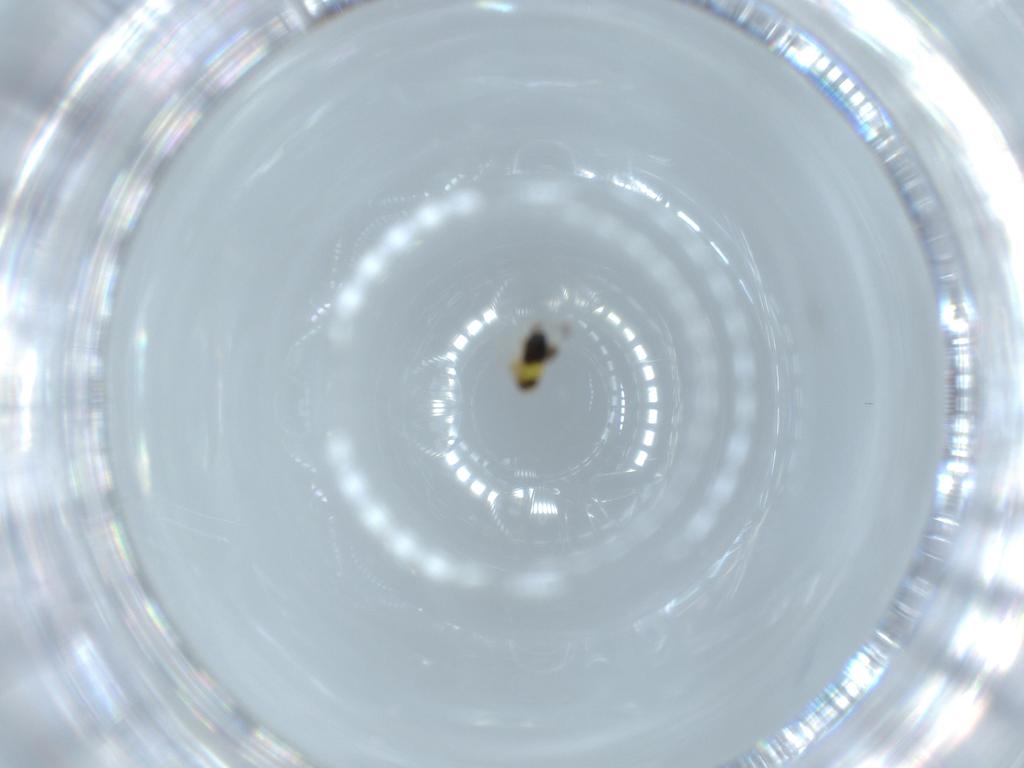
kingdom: Animalia
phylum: Arthropoda
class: Insecta
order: Hymenoptera
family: Signiphoridae
